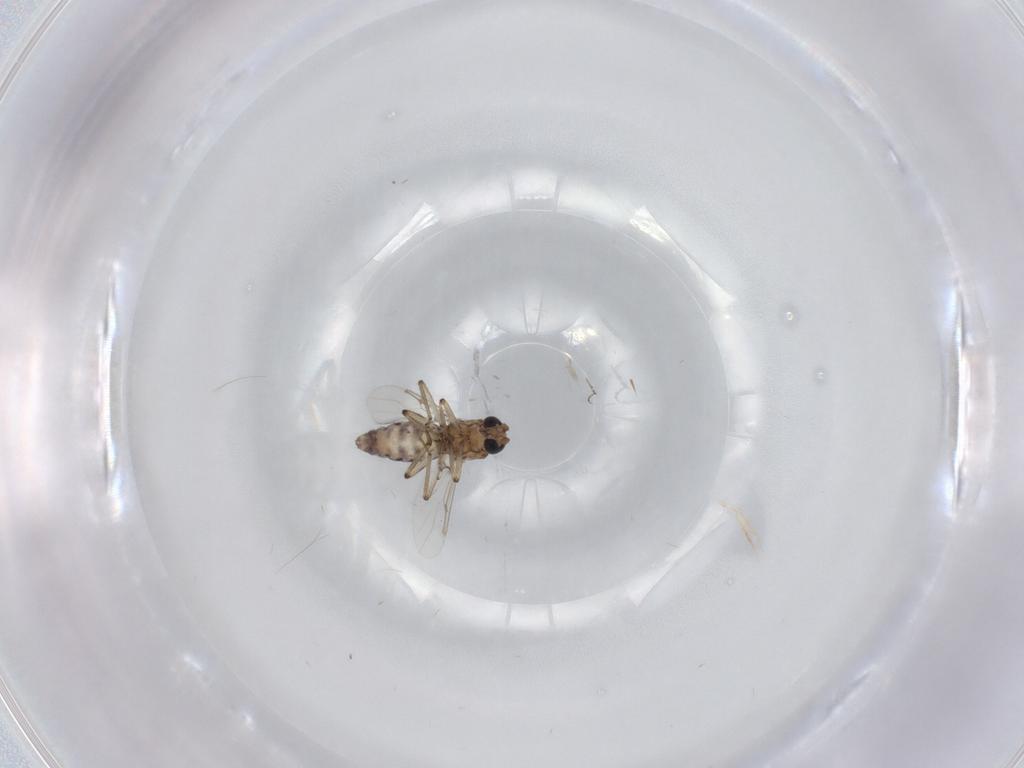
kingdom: Animalia
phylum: Arthropoda
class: Insecta
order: Diptera
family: Ceratopogonidae
